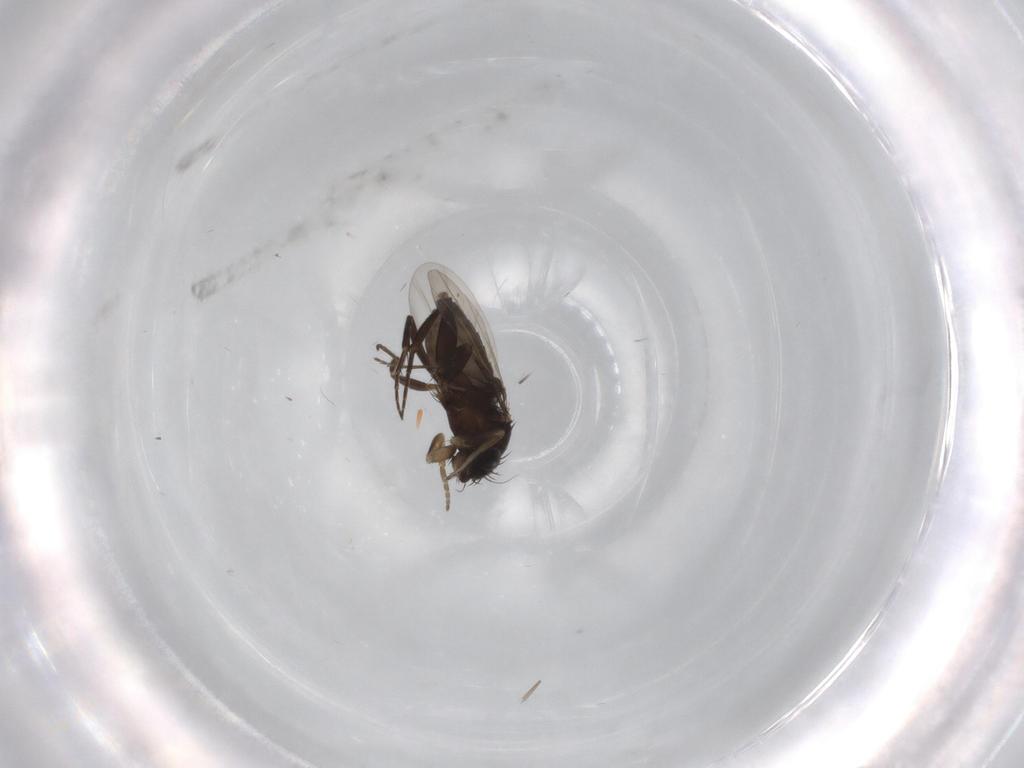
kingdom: Animalia
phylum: Arthropoda
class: Insecta
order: Diptera
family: Phoridae
